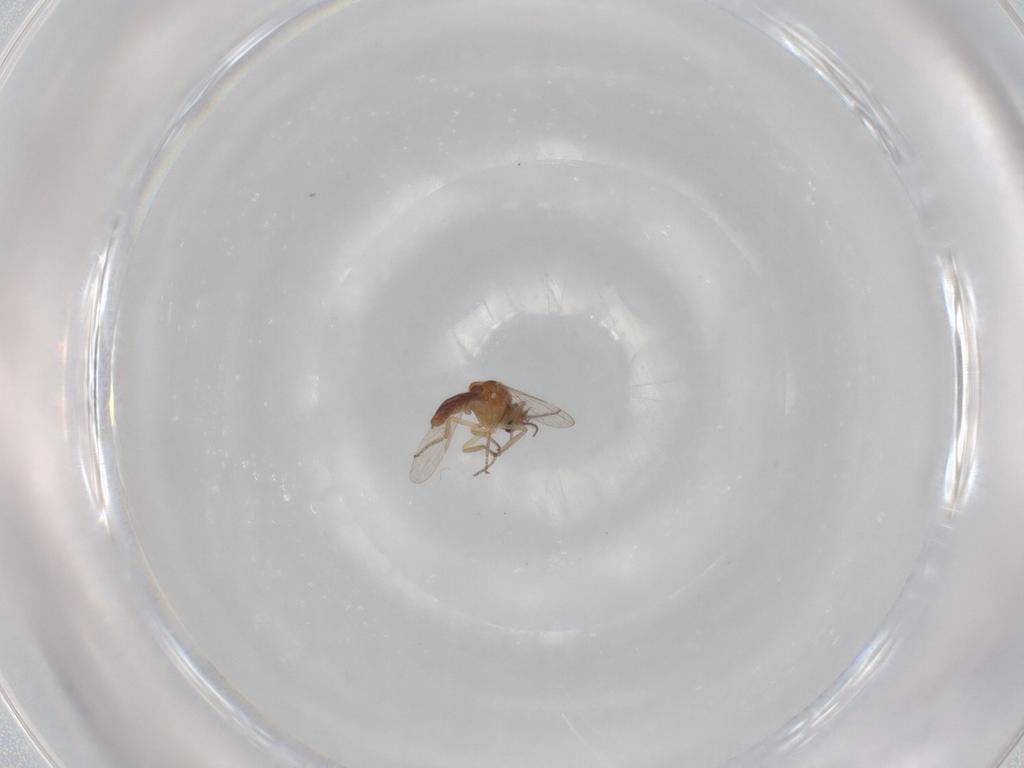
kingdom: Animalia
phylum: Arthropoda
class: Insecta
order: Diptera
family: Ceratopogonidae
